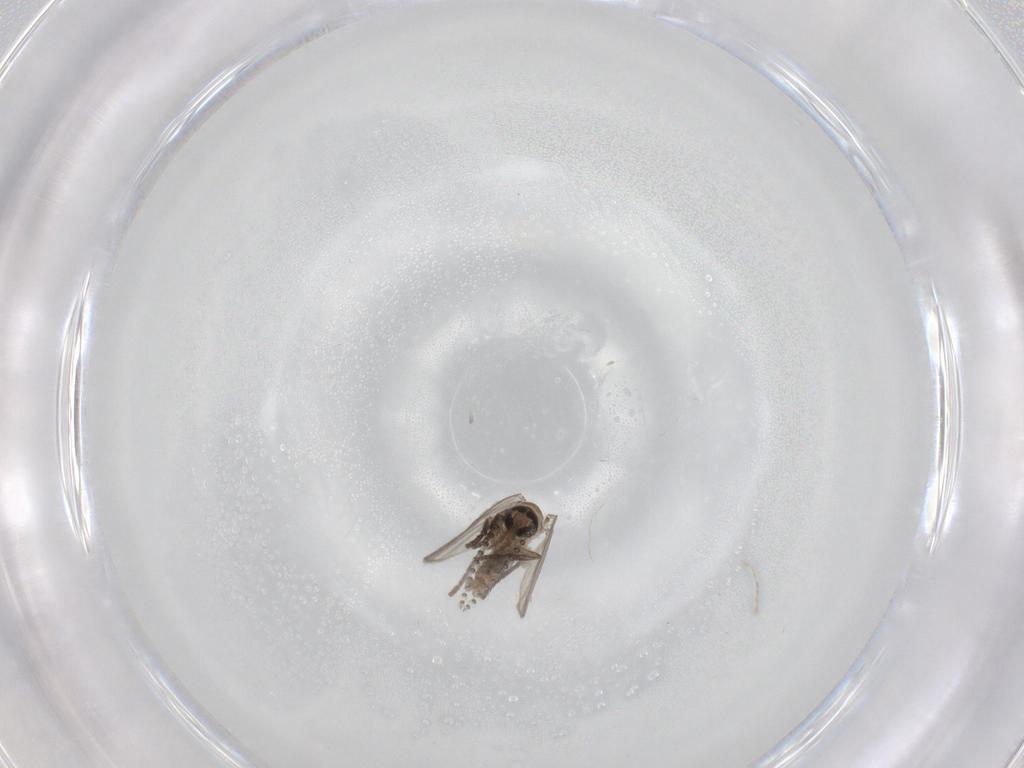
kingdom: Animalia
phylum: Arthropoda
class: Insecta
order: Diptera
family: Psychodidae
